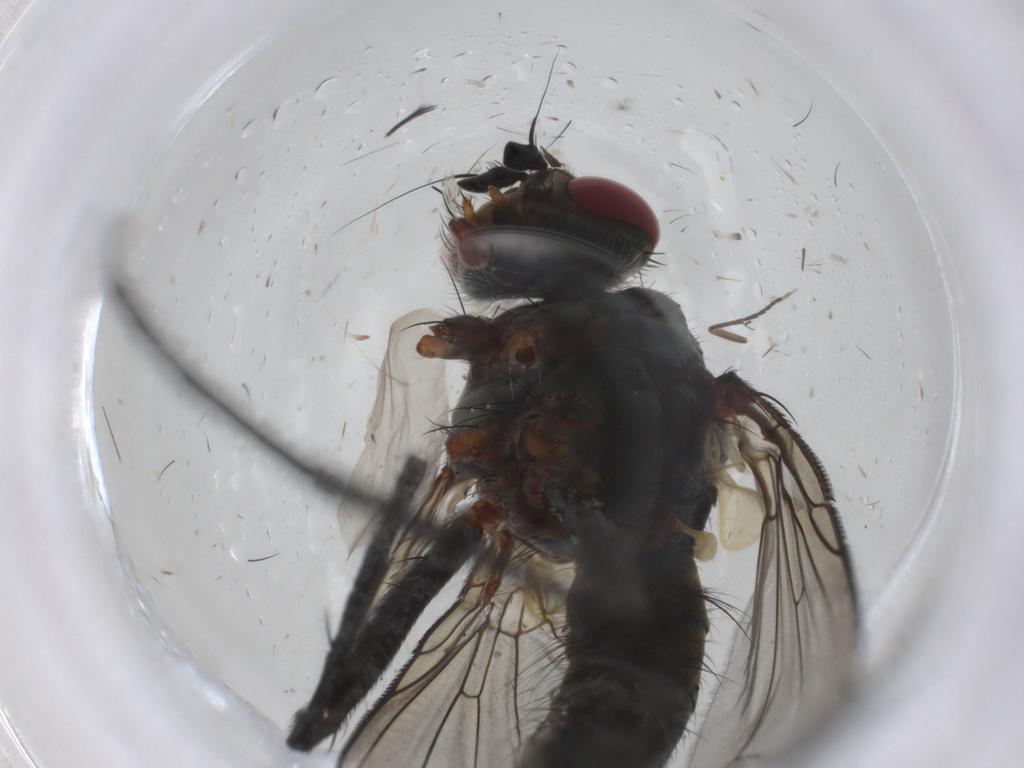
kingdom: Animalia
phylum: Arthropoda
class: Insecta
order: Diptera
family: Tachinidae
